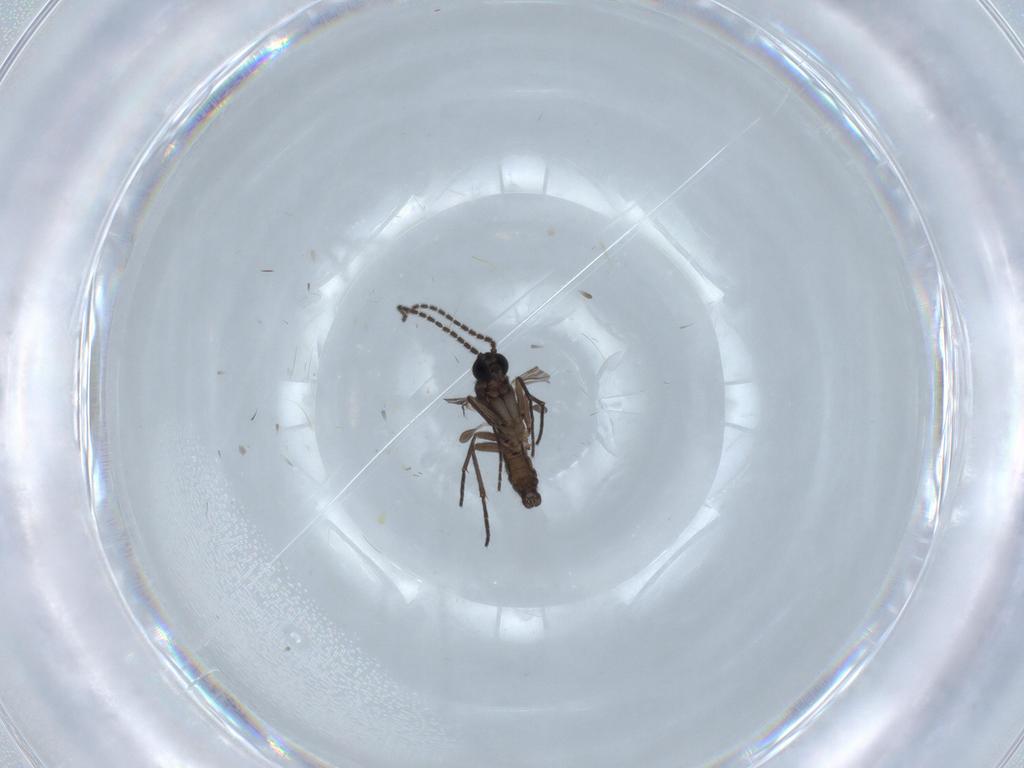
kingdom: Animalia
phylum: Arthropoda
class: Insecta
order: Diptera
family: Sciaridae
